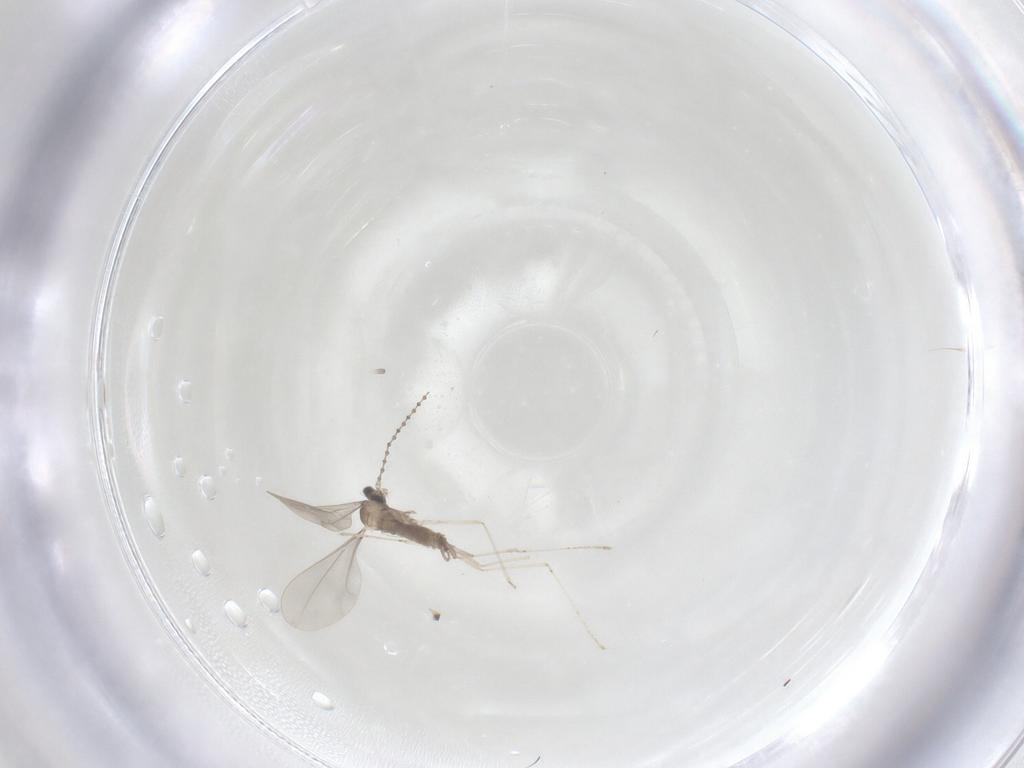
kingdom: Animalia
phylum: Arthropoda
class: Insecta
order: Diptera
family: Cecidomyiidae
